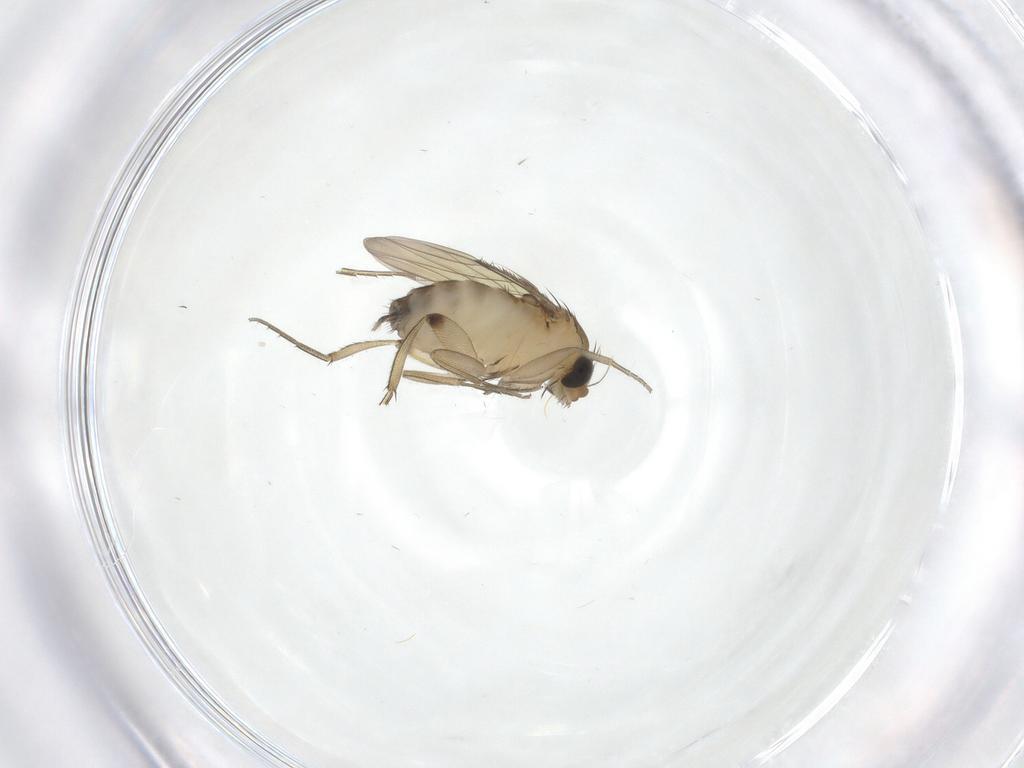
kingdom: Animalia
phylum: Arthropoda
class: Insecta
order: Diptera
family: Phoridae
